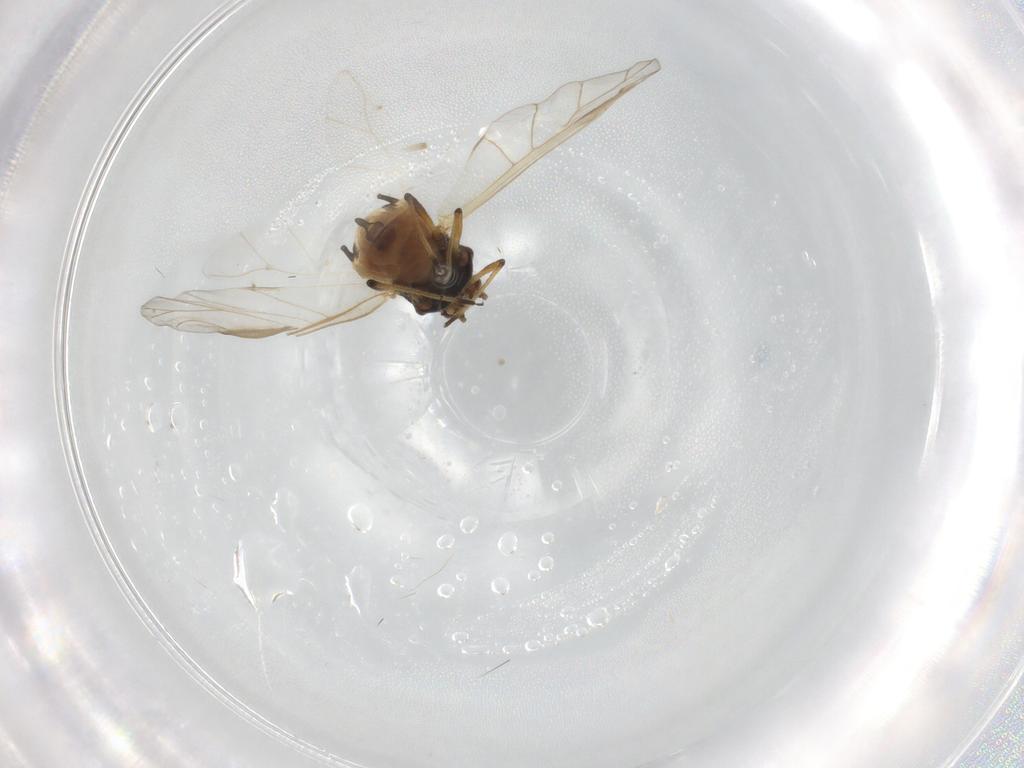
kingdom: Animalia
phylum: Arthropoda
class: Insecta
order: Hemiptera
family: Aphididae
